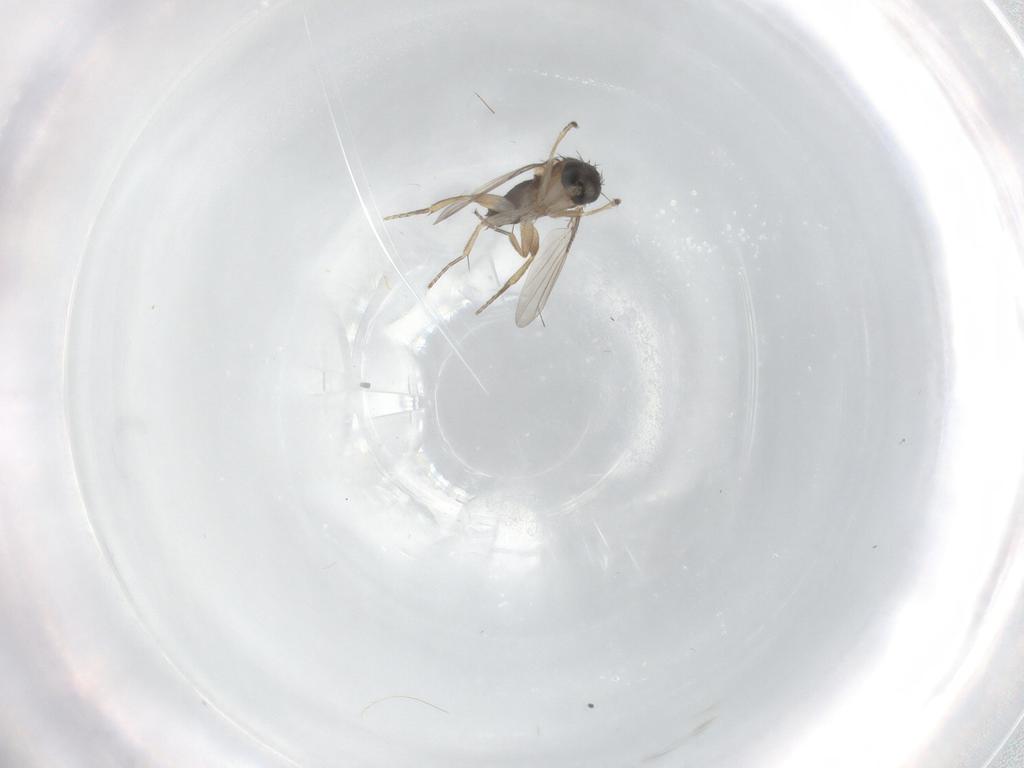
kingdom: Animalia
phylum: Arthropoda
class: Insecta
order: Diptera
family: Phoridae
